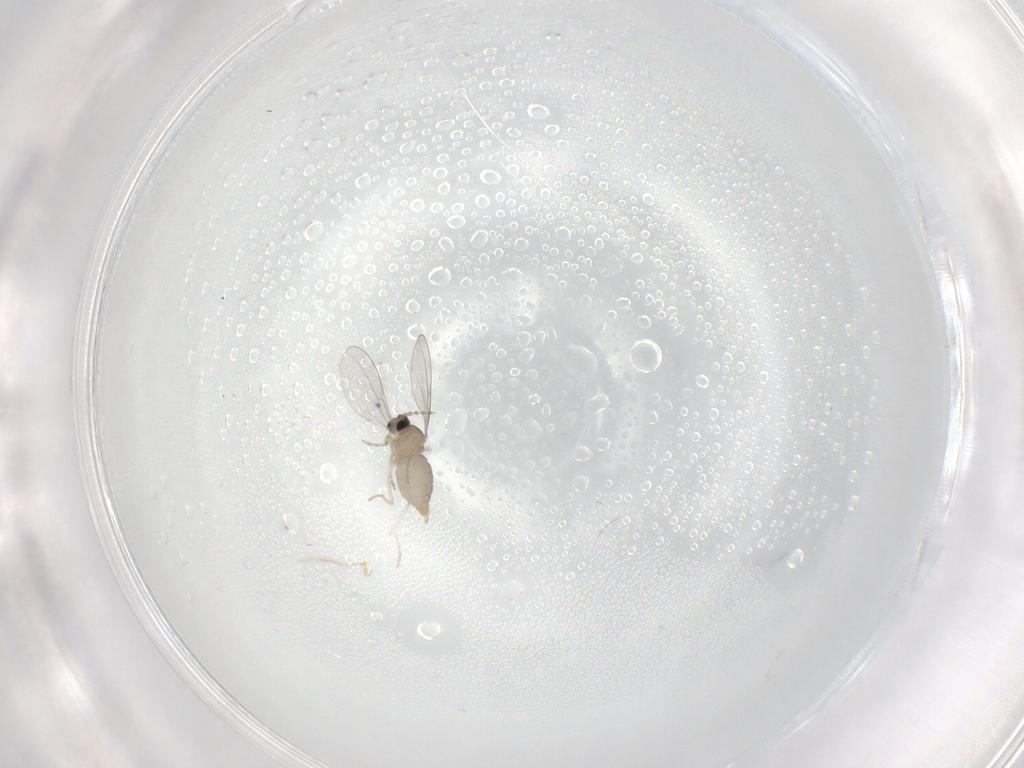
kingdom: Animalia
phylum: Arthropoda
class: Insecta
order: Diptera
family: Cecidomyiidae
